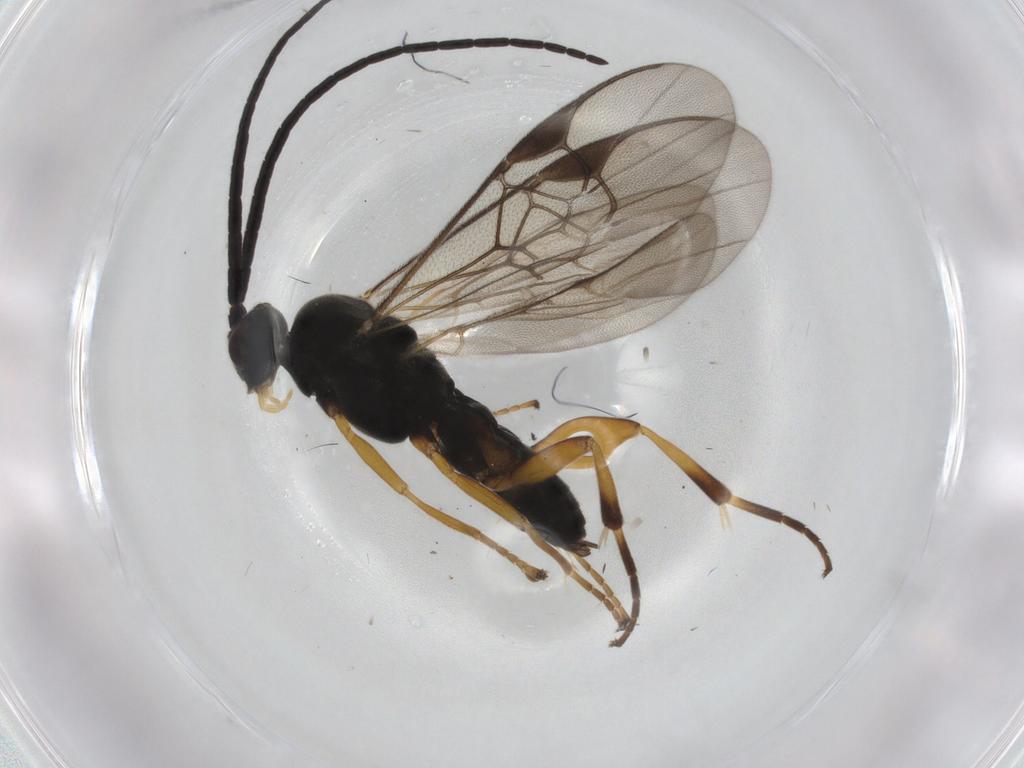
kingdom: Animalia
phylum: Arthropoda
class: Insecta
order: Hymenoptera
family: Braconidae
